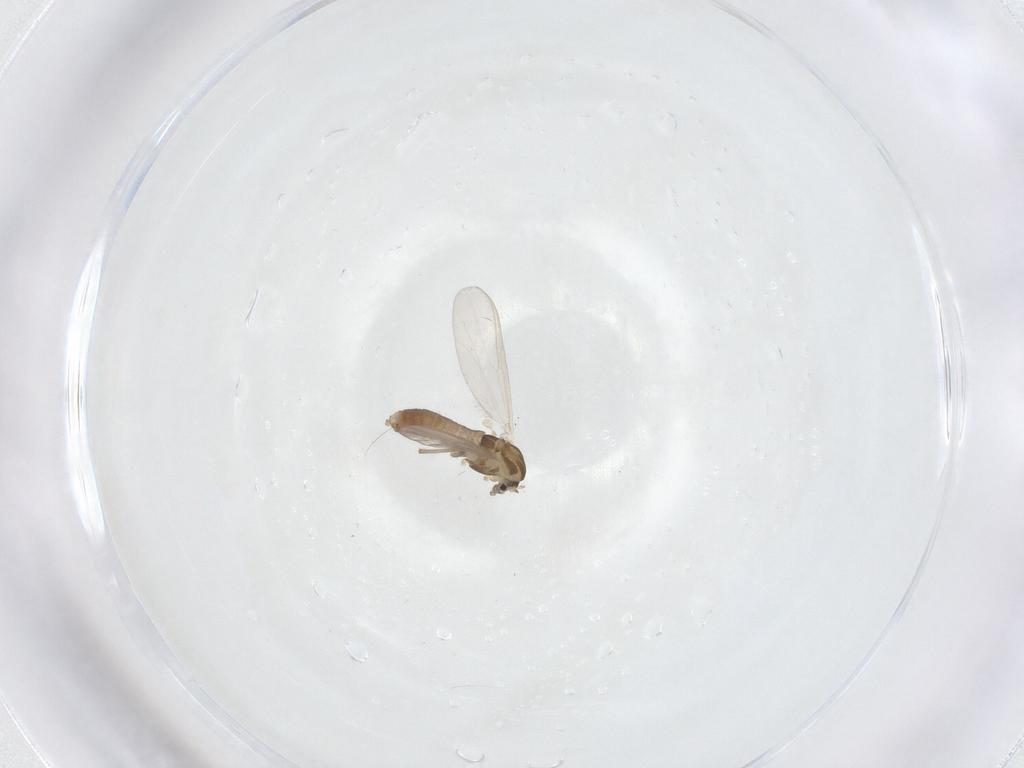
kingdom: Animalia
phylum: Arthropoda
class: Insecta
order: Diptera
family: Chironomidae
